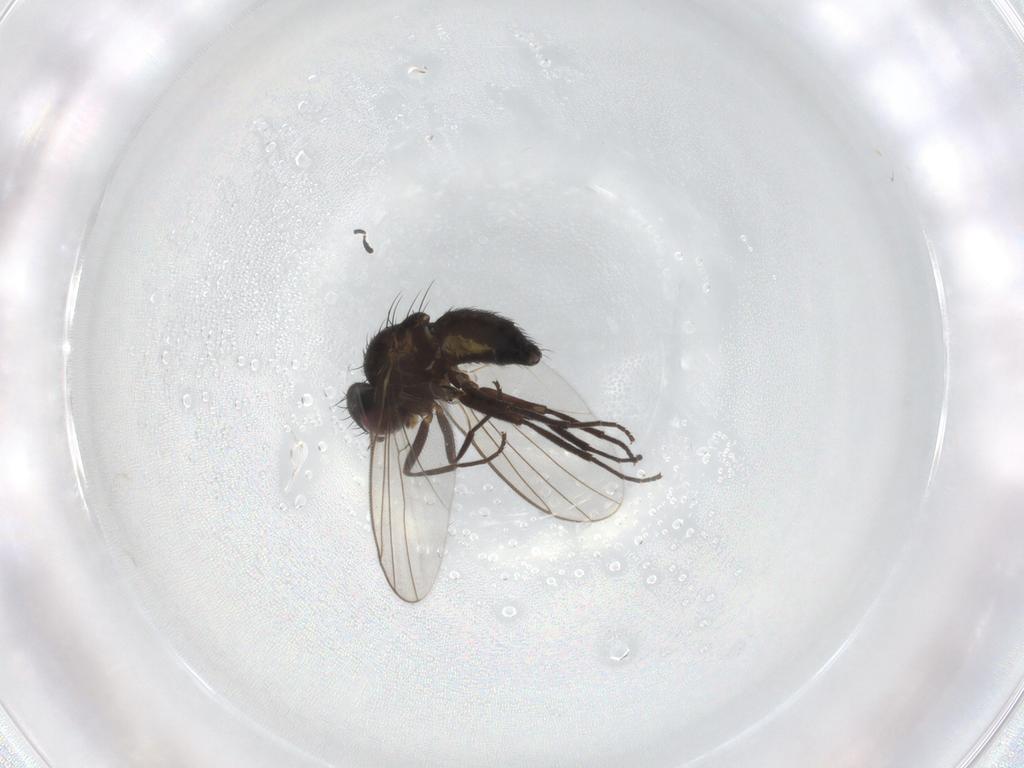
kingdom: Animalia
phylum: Arthropoda
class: Insecta
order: Diptera
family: Agromyzidae
